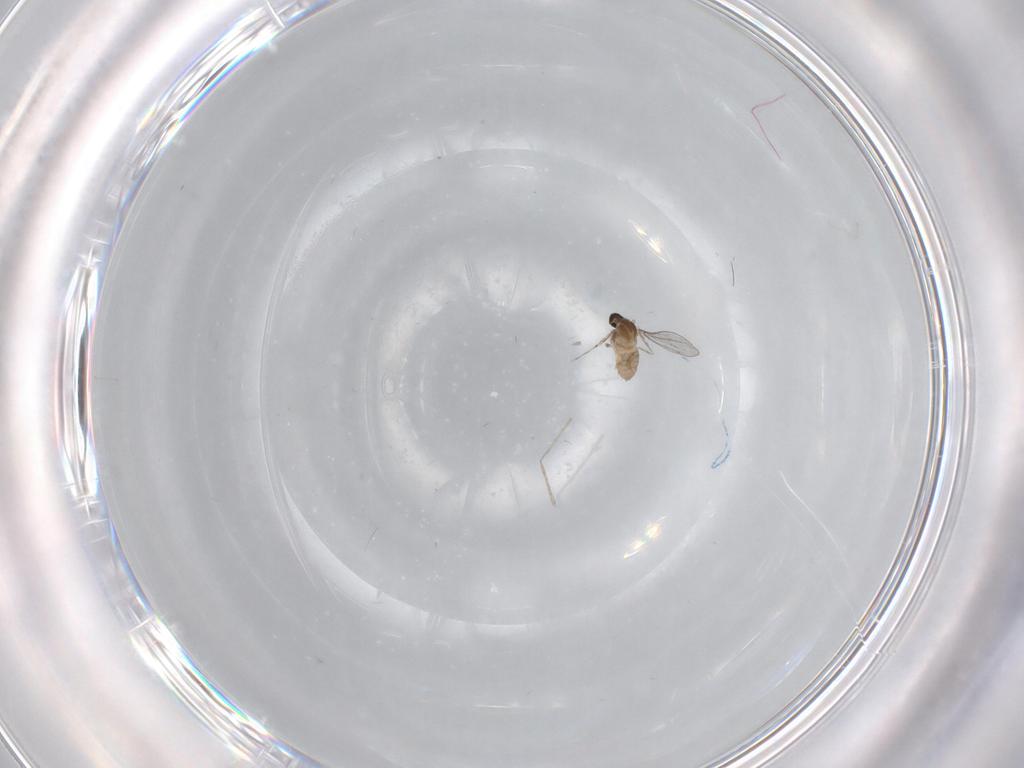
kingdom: Animalia
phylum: Arthropoda
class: Insecta
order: Diptera
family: Cecidomyiidae
